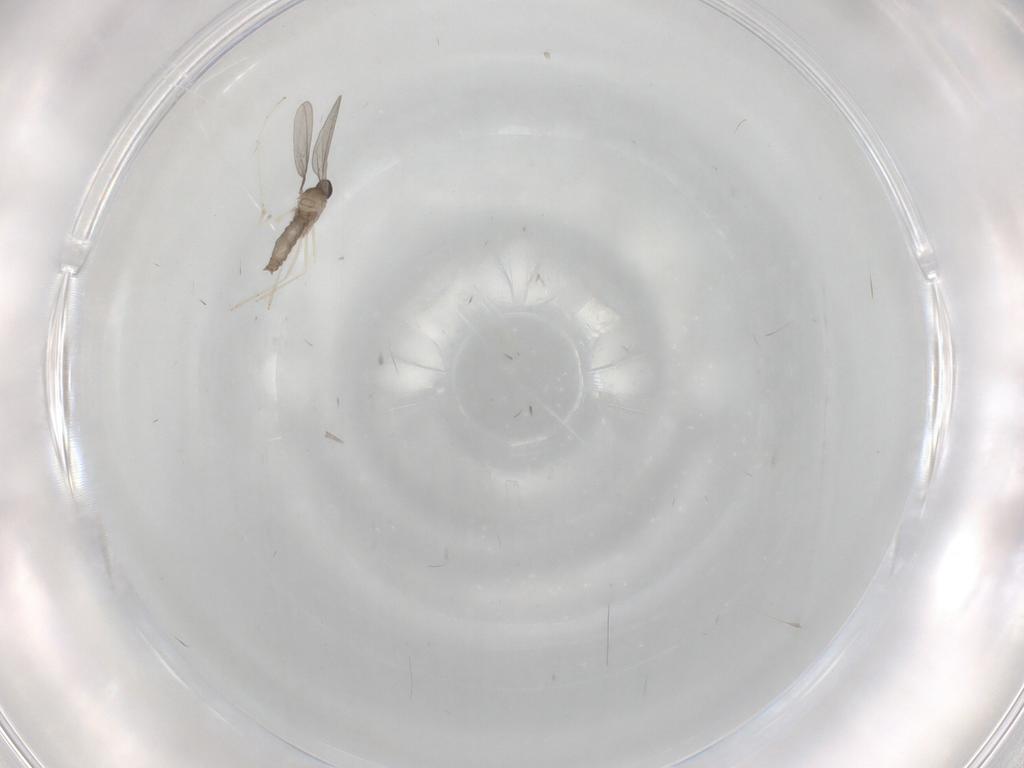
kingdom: Animalia
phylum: Arthropoda
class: Insecta
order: Diptera
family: Cecidomyiidae
